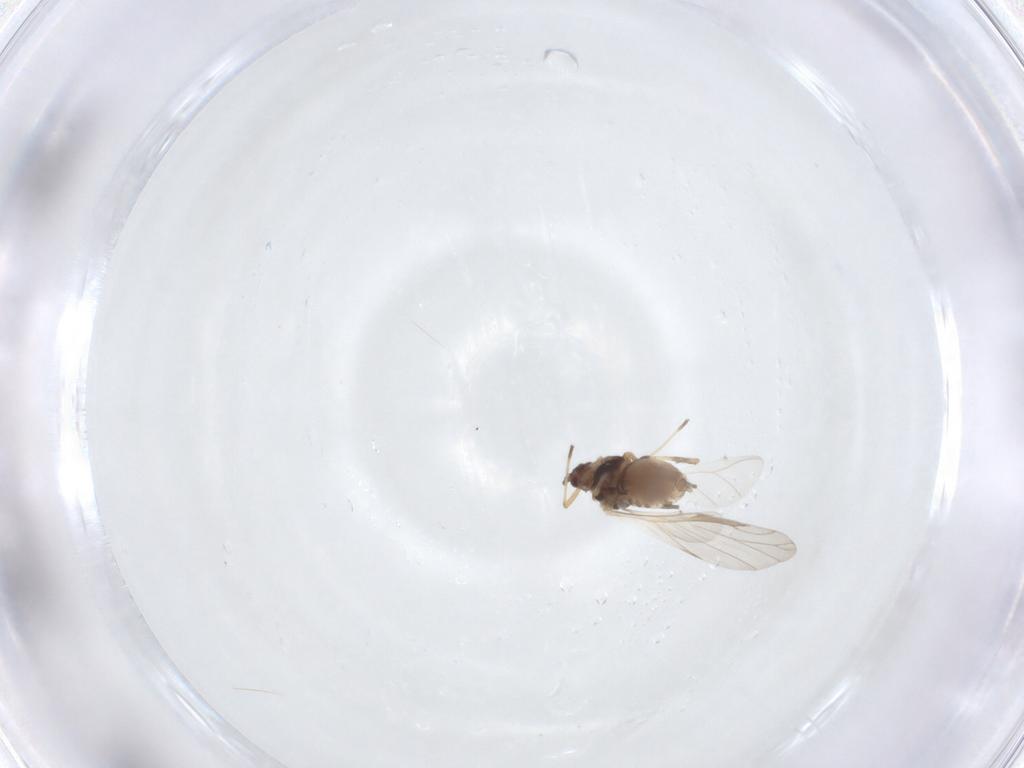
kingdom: Animalia
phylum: Arthropoda
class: Insecta
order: Hemiptera
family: Aphididae
